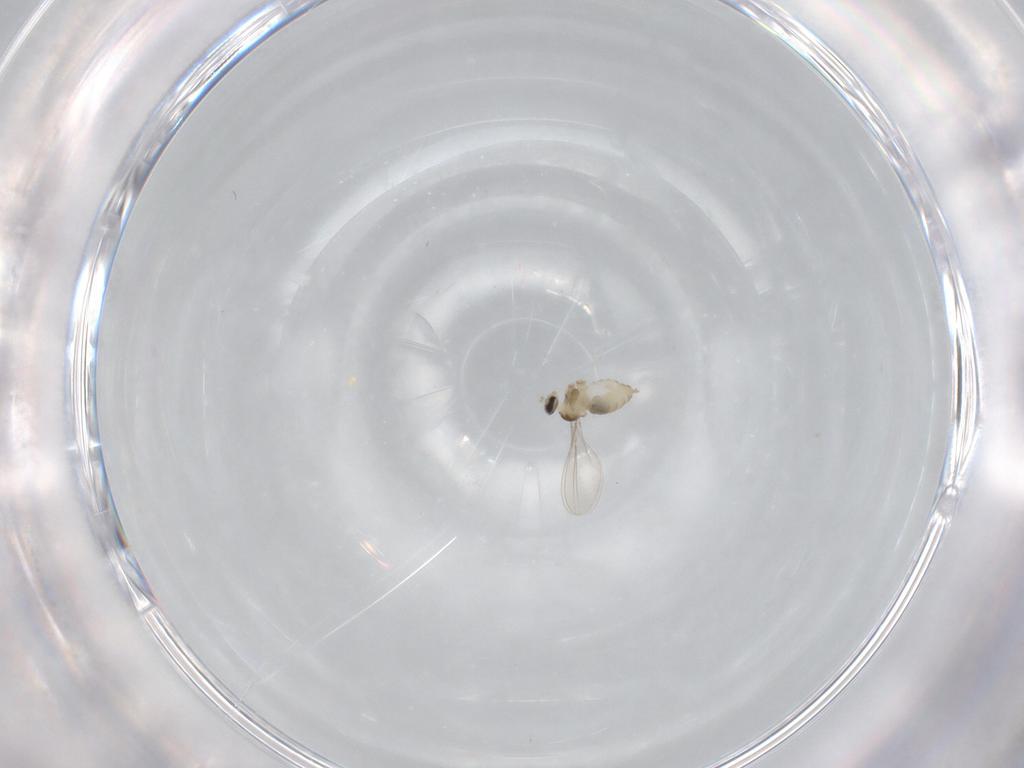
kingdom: Animalia
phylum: Arthropoda
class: Insecta
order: Diptera
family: Cecidomyiidae
